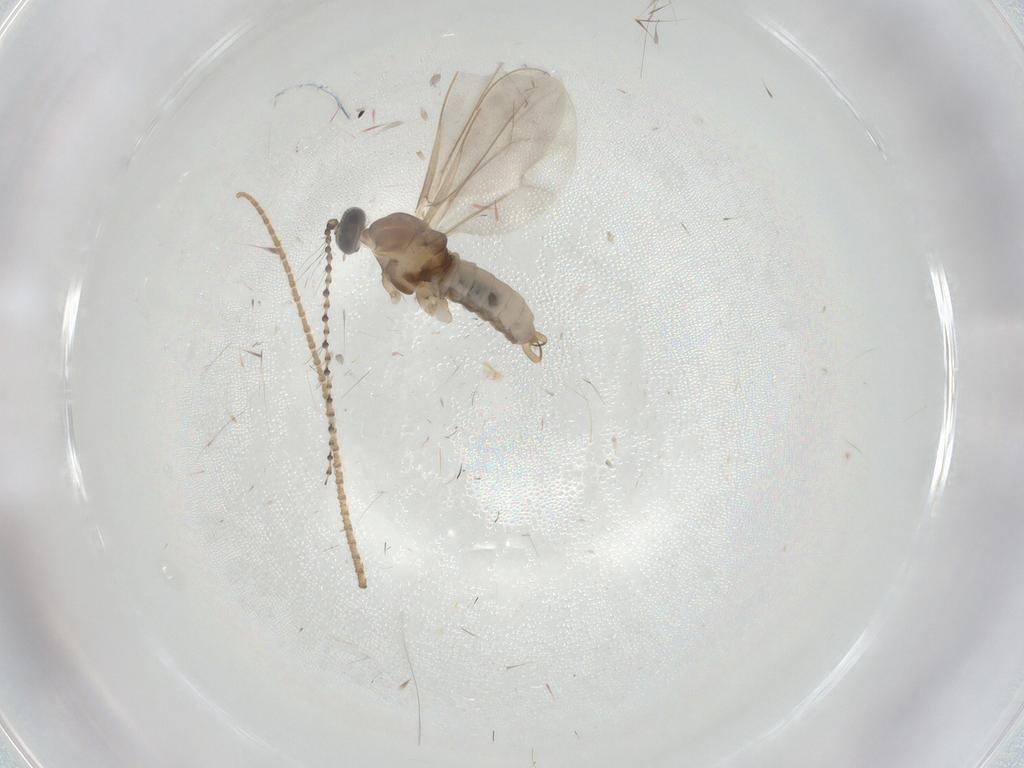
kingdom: Animalia
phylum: Arthropoda
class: Insecta
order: Diptera
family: Cecidomyiidae
